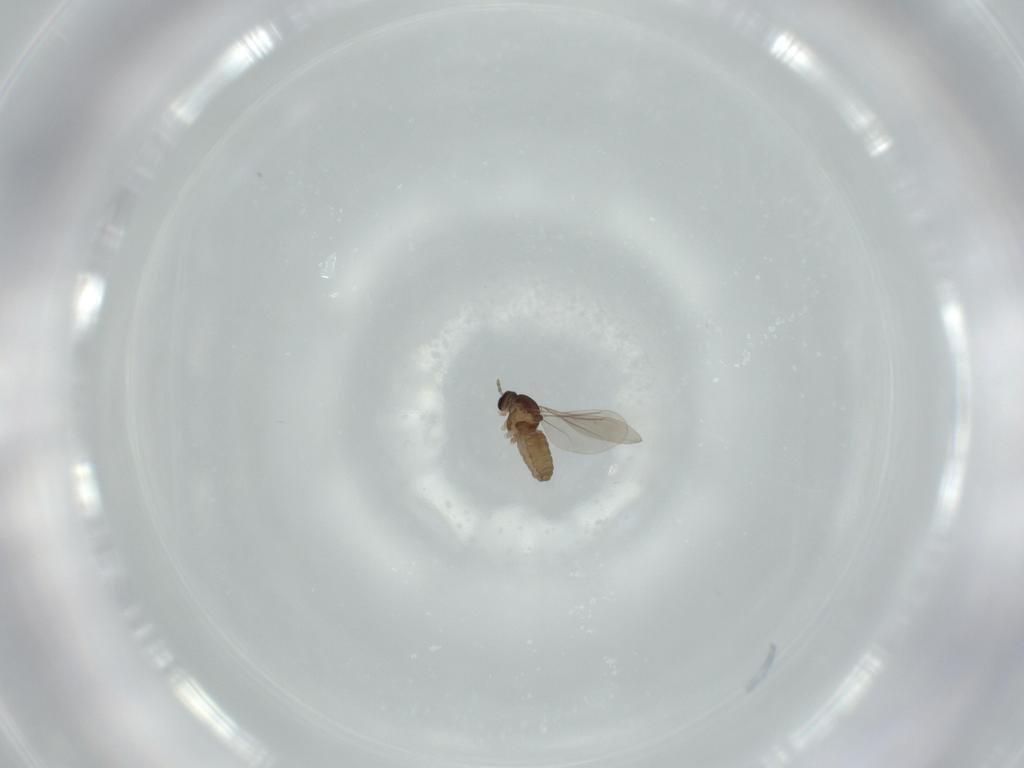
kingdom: Animalia
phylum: Arthropoda
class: Insecta
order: Diptera
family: Cecidomyiidae
